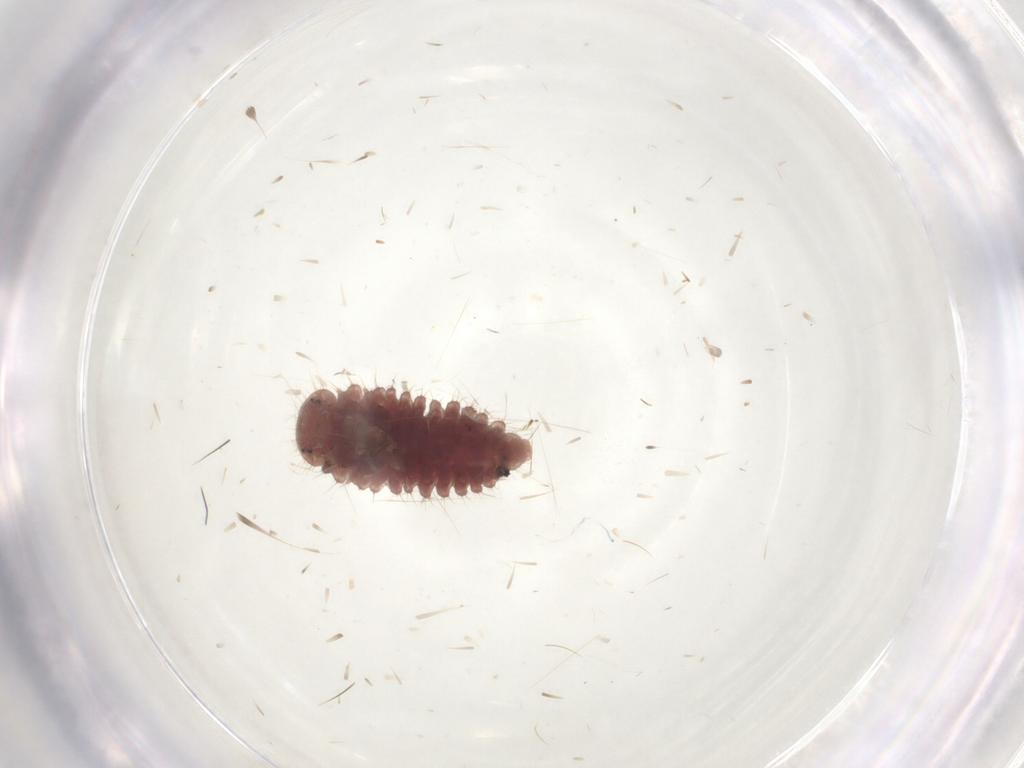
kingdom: Animalia
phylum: Arthropoda
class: Insecta
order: Coleoptera
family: Coccinellidae
